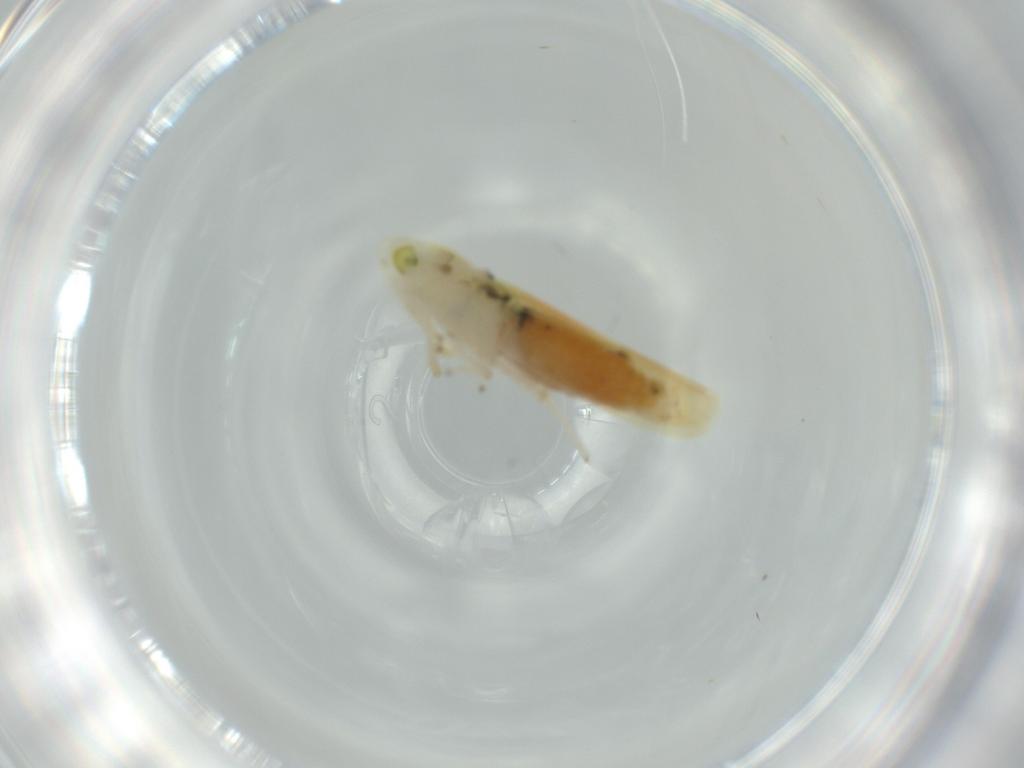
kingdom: Animalia
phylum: Arthropoda
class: Insecta
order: Hemiptera
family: Cicadellidae
